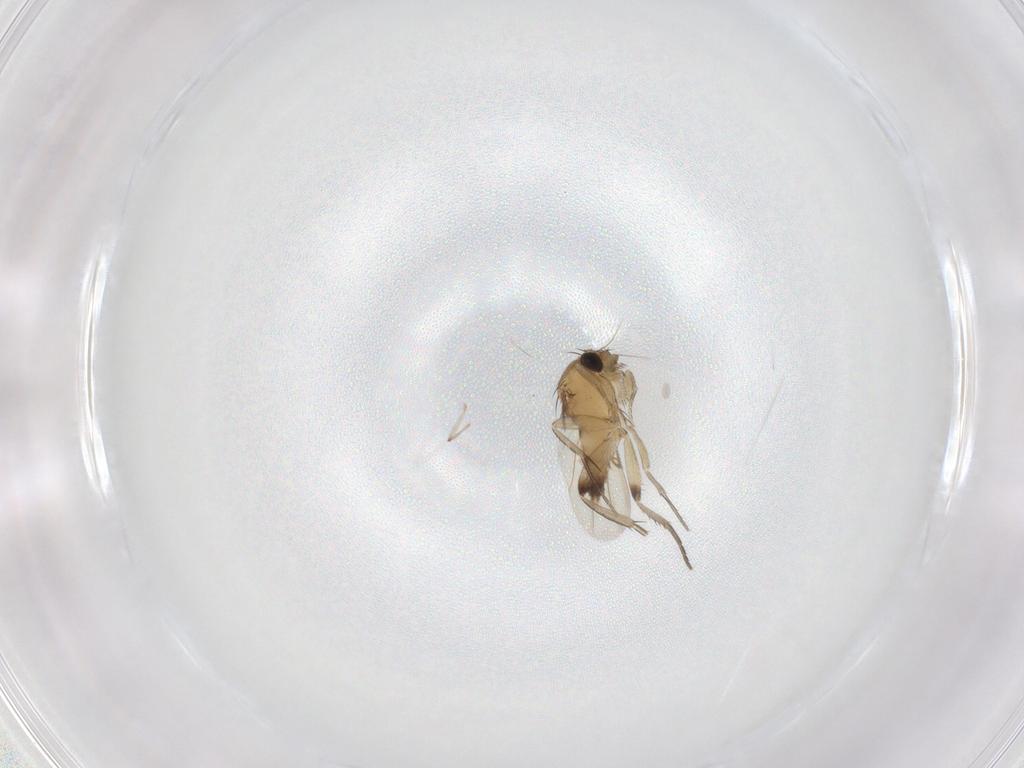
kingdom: Animalia
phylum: Arthropoda
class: Insecta
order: Diptera
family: Phoridae
